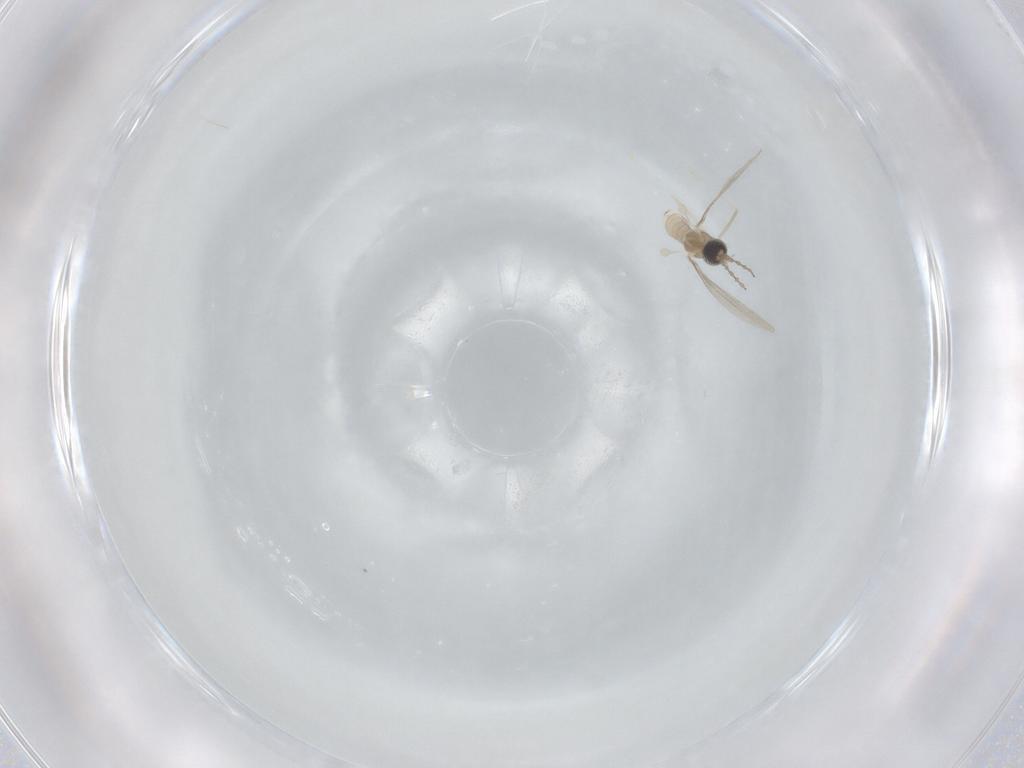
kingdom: Animalia
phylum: Arthropoda
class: Insecta
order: Diptera
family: Cecidomyiidae
